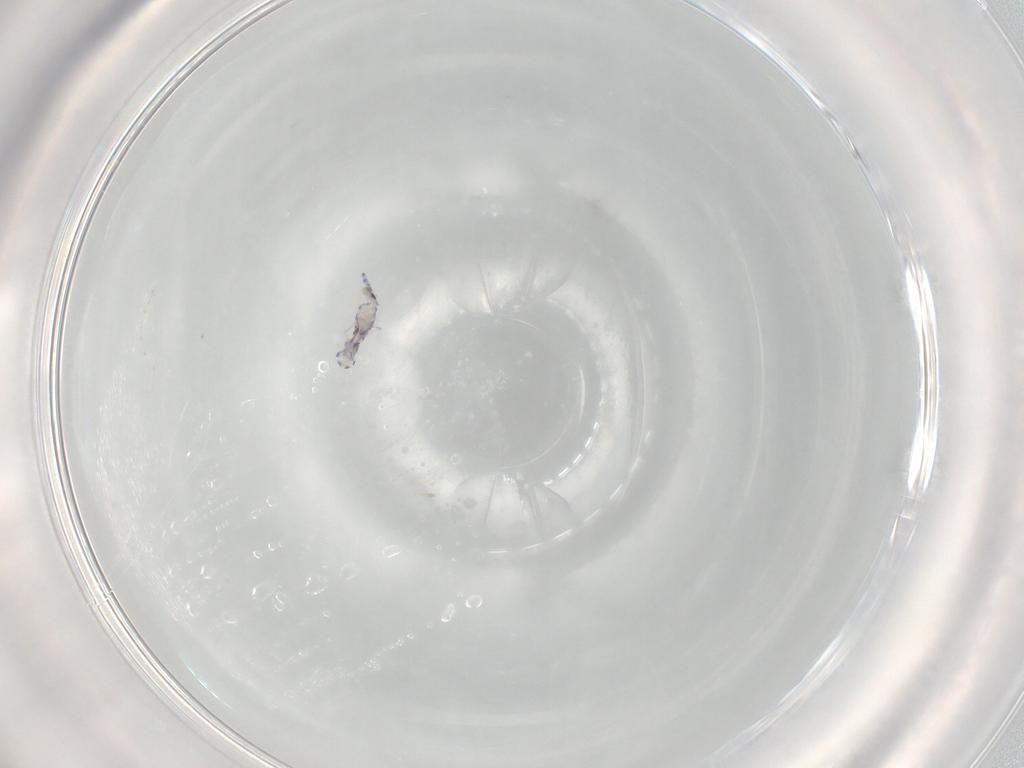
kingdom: Animalia
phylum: Arthropoda
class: Collembola
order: Entomobryomorpha
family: Entomobryidae
